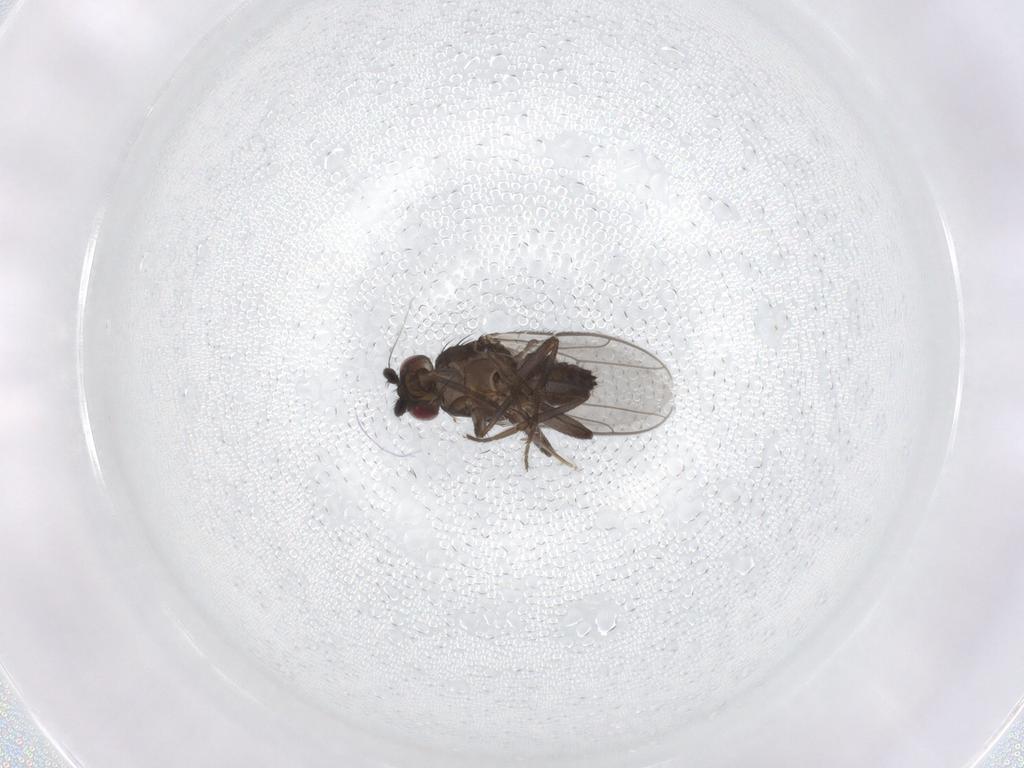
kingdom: Animalia
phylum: Arthropoda
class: Insecta
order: Diptera
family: Sphaeroceridae
